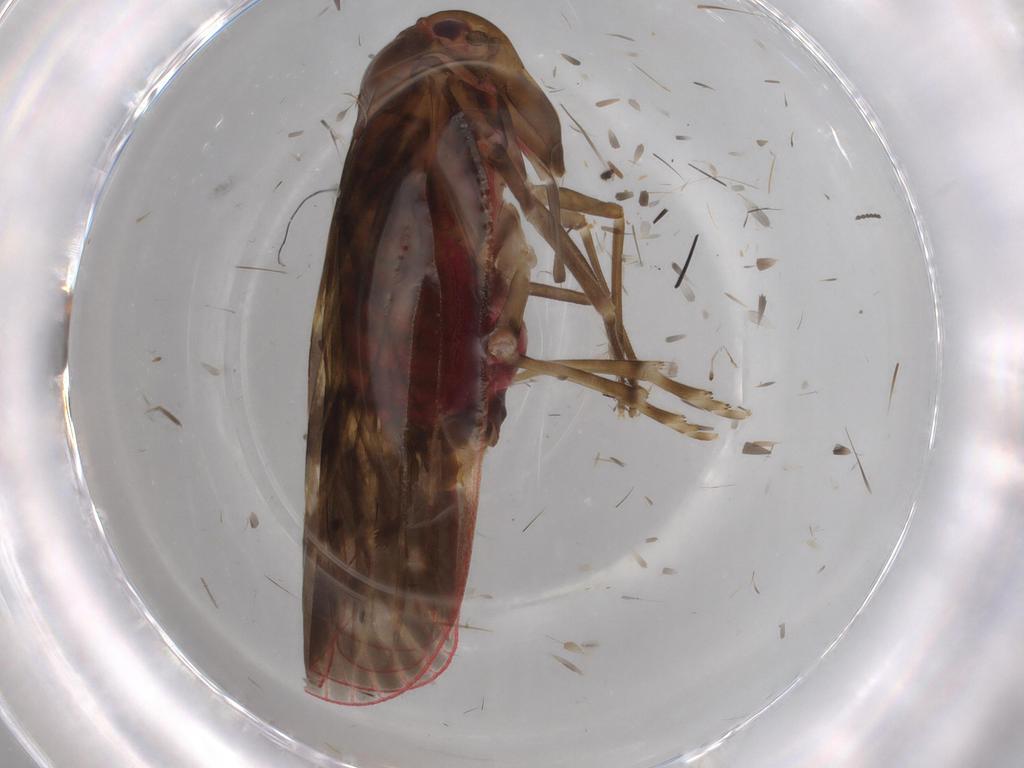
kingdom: Animalia
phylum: Arthropoda
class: Insecta
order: Hemiptera
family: Achilidae
